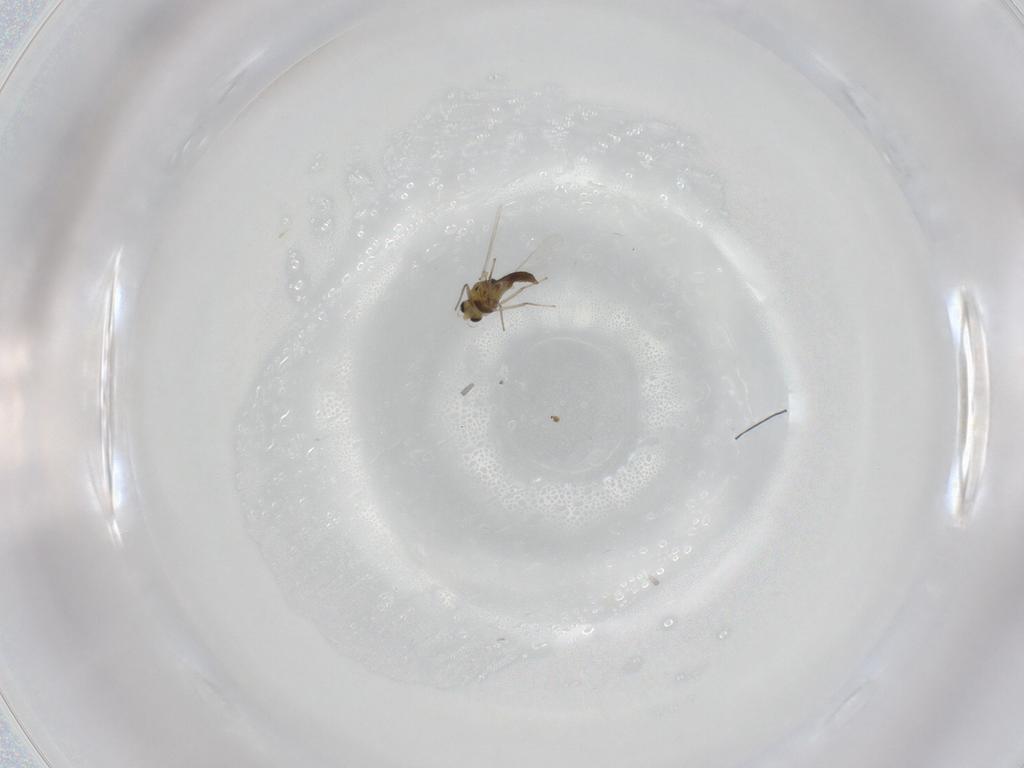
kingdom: Animalia
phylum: Arthropoda
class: Insecta
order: Diptera
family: Chironomidae
